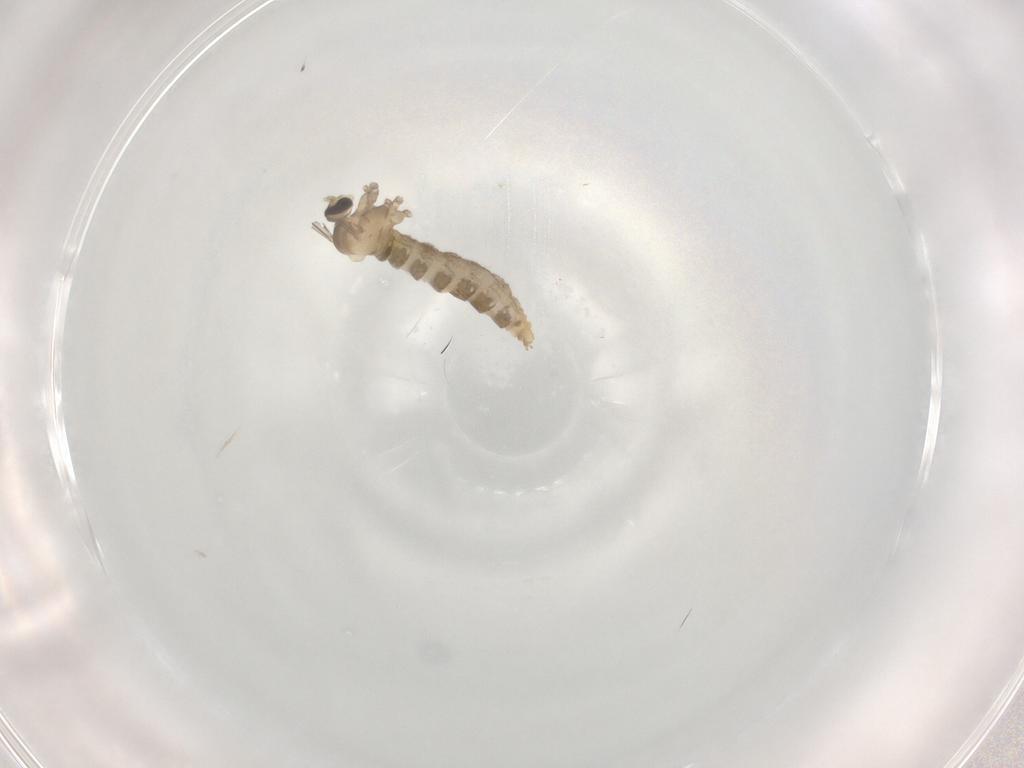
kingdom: Animalia
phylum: Arthropoda
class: Insecta
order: Diptera
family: Cecidomyiidae
